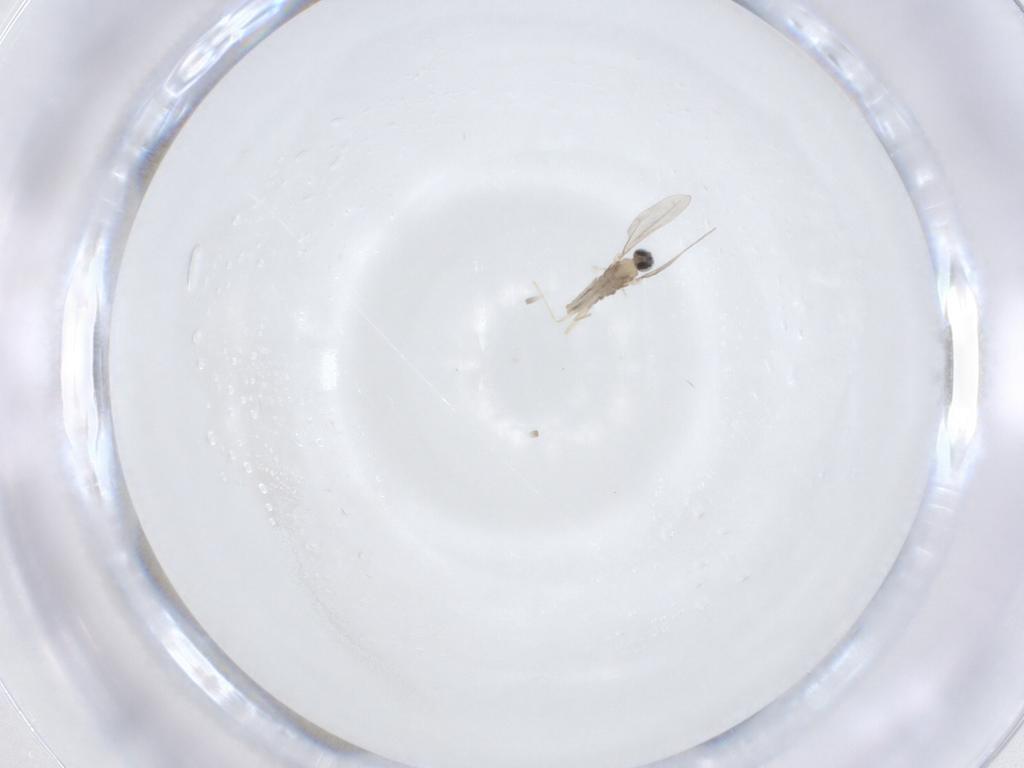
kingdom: Animalia
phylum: Arthropoda
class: Insecta
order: Diptera
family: Cecidomyiidae
